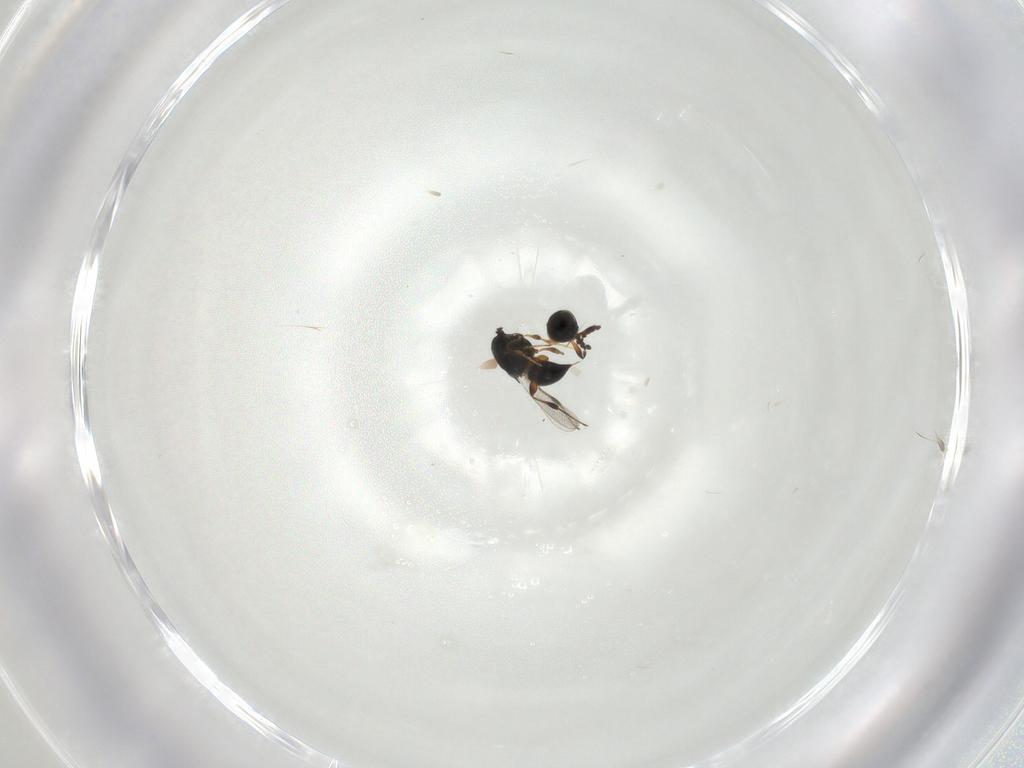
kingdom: Animalia
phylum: Arthropoda
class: Insecta
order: Hymenoptera
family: Platygastridae
